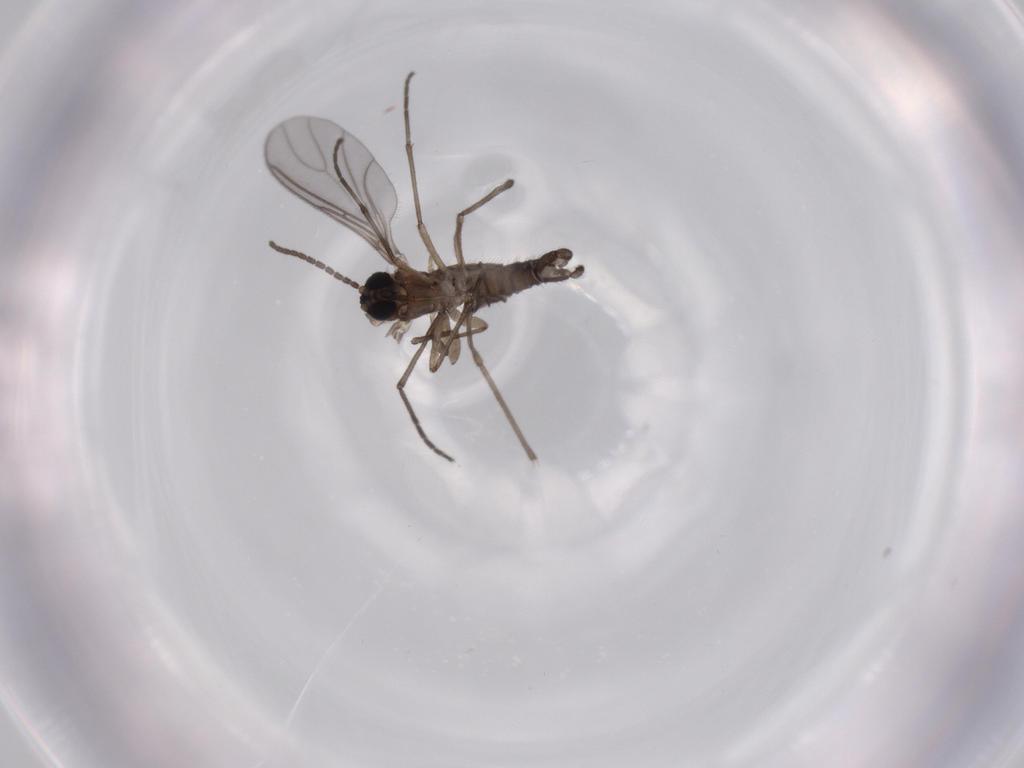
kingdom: Animalia
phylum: Arthropoda
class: Insecta
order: Diptera
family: Sciaridae
